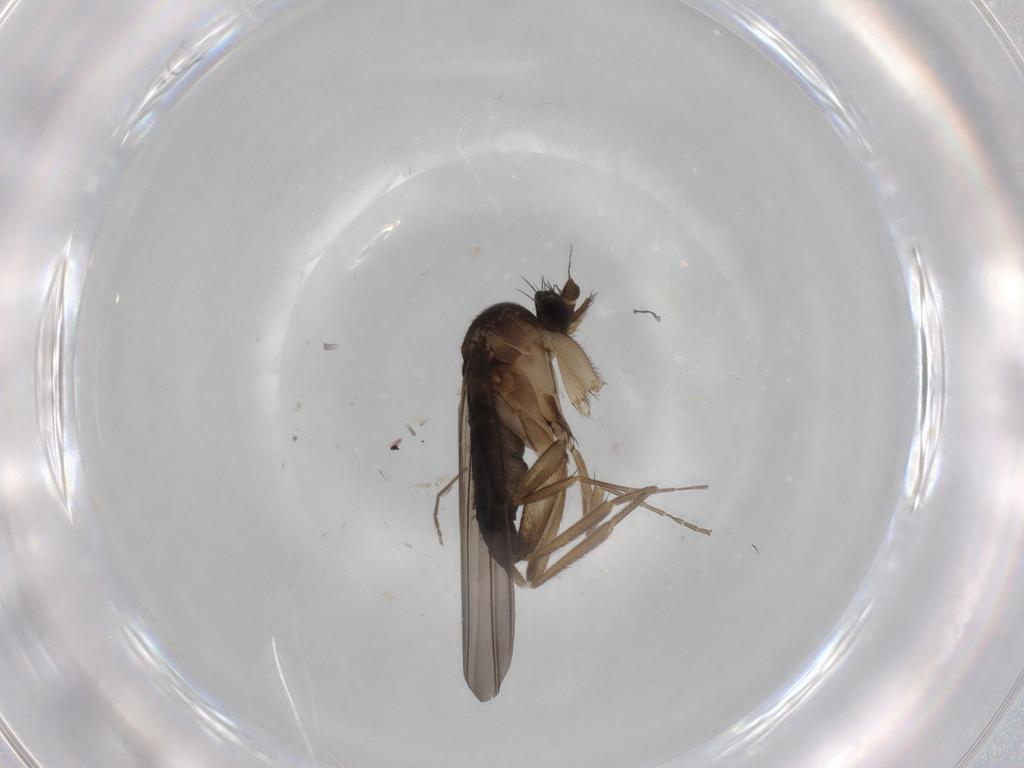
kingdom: Animalia
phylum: Arthropoda
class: Insecta
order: Diptera
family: Phoridae
